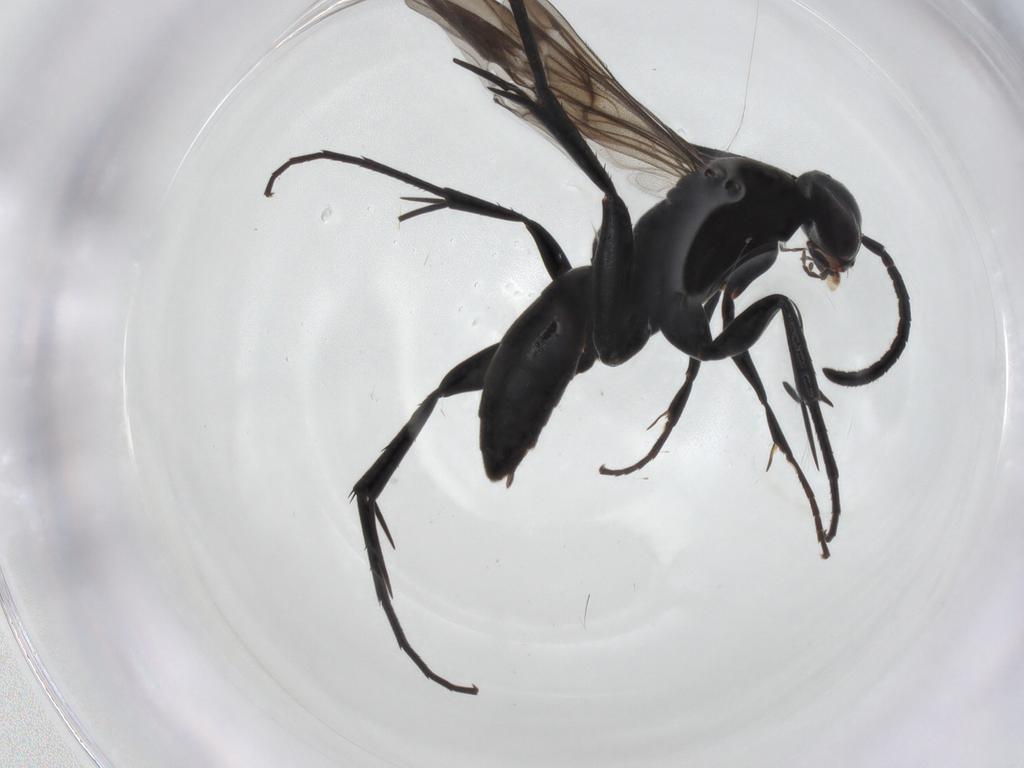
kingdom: Animalia
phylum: Arthropoda
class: Insecta
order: Hymenoptera
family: Pompilidae
